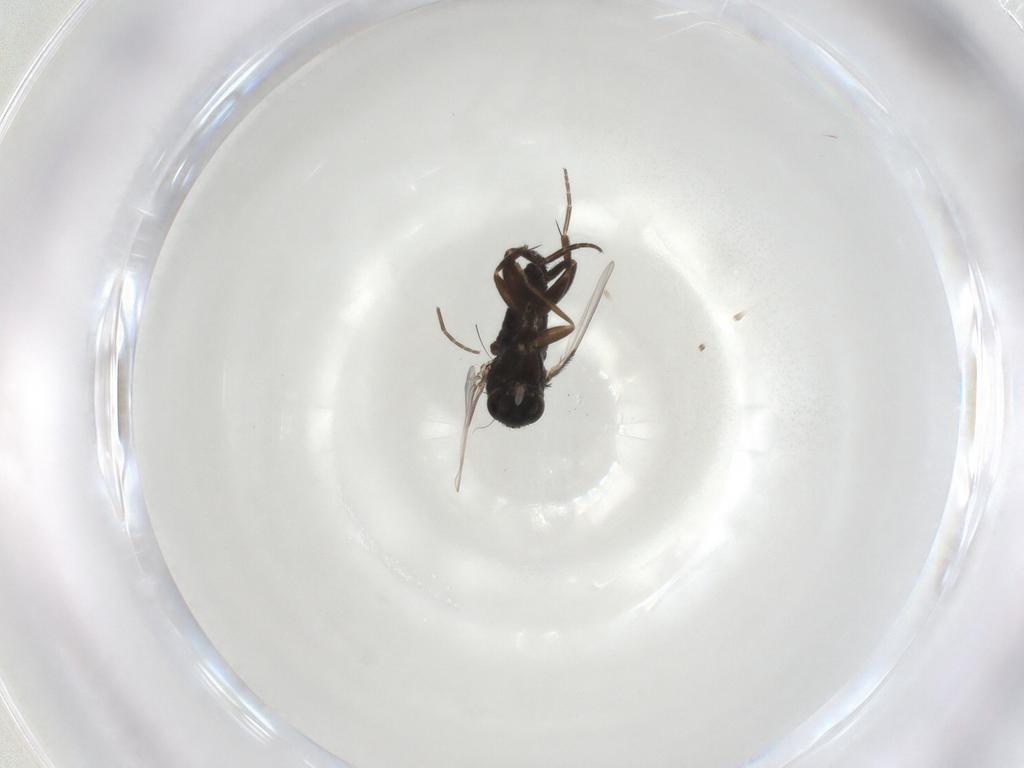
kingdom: Animalia
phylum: Arthropoda
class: Insecta
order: Diptera
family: Phoridae
